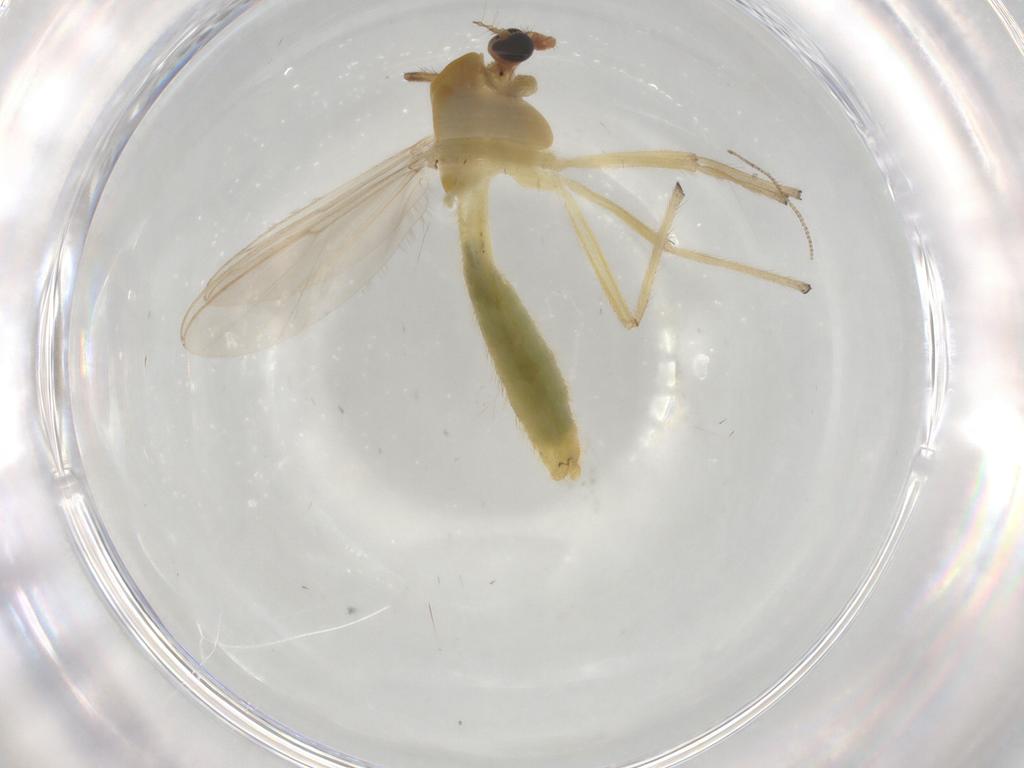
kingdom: Animalia
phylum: Arthropoda
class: Insecta
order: Diptera
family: Chironomidae
